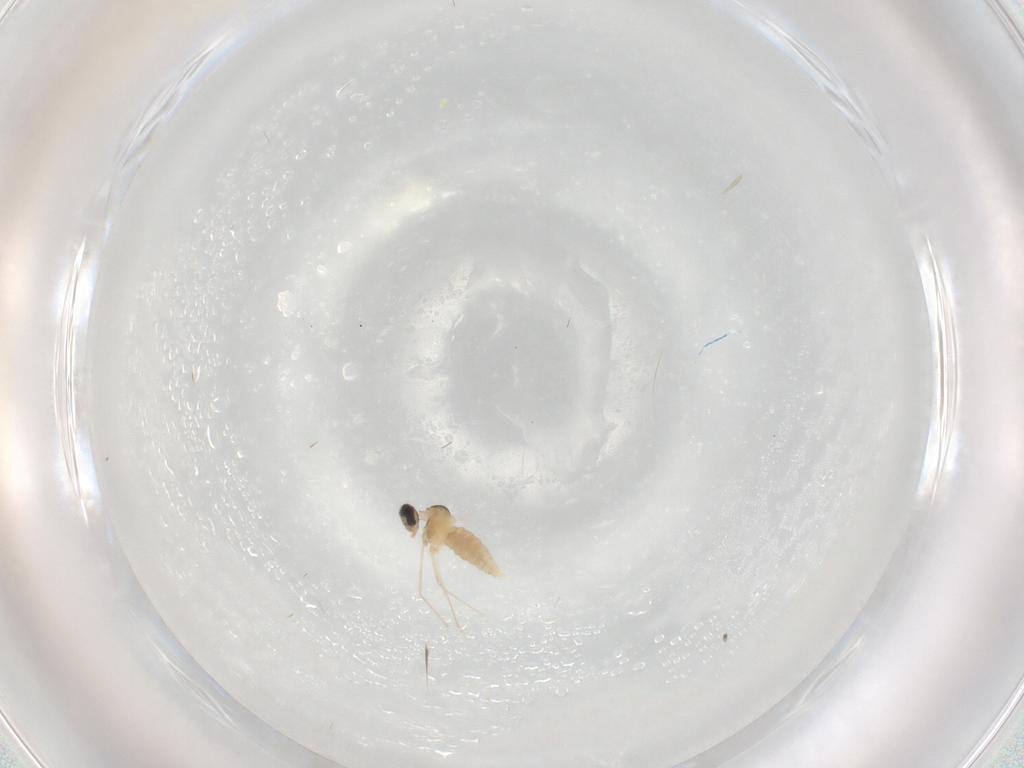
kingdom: Animalia
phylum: Arthropoda
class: Insecta
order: Diptera
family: Cecidomyiidae
